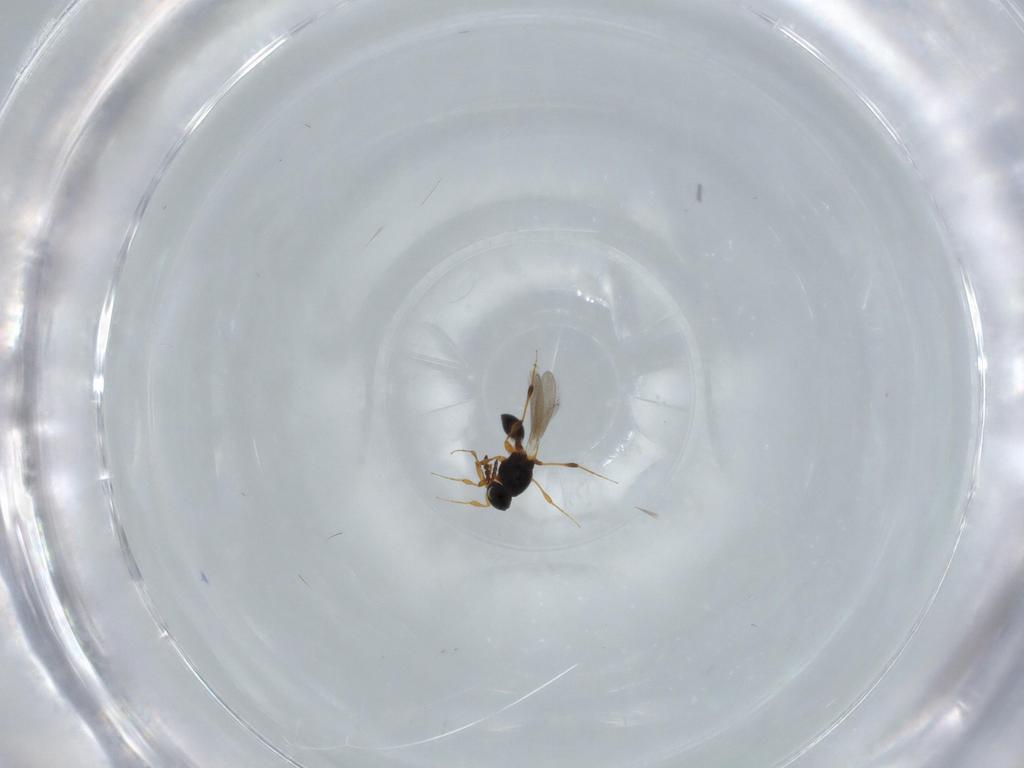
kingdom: Animalia
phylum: Arthropoda
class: Insecta
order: Hymenoptera
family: Platygastridae
